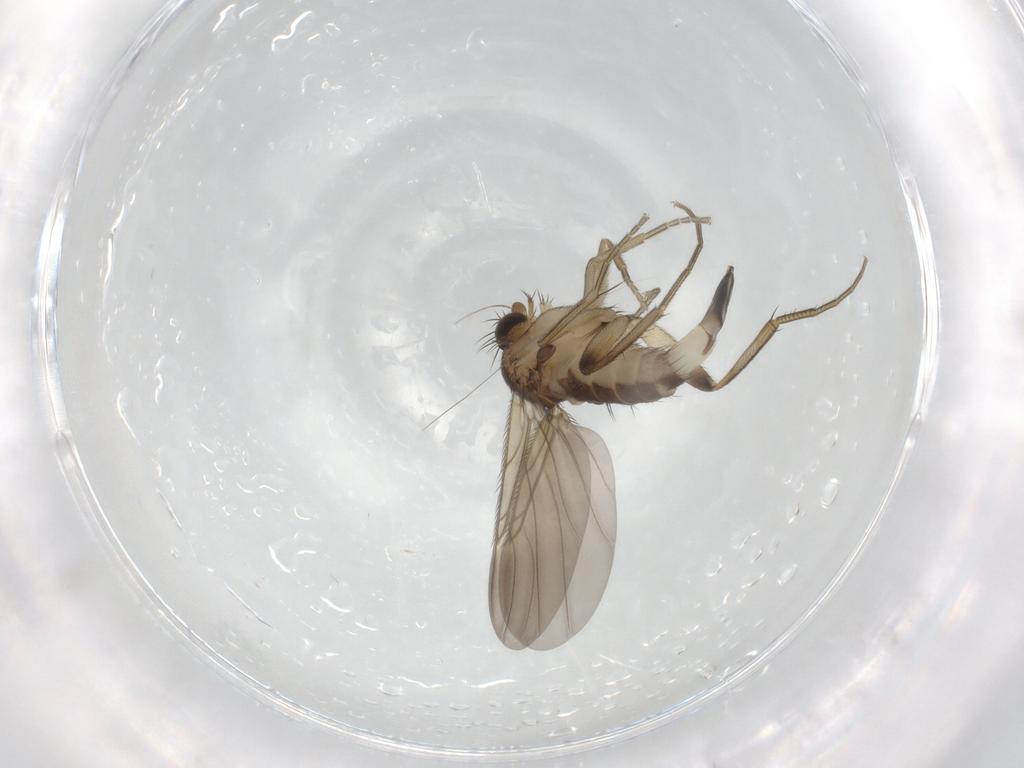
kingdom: Animalia
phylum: Arthropoda
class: Insecta
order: Diptera
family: Phoridae
